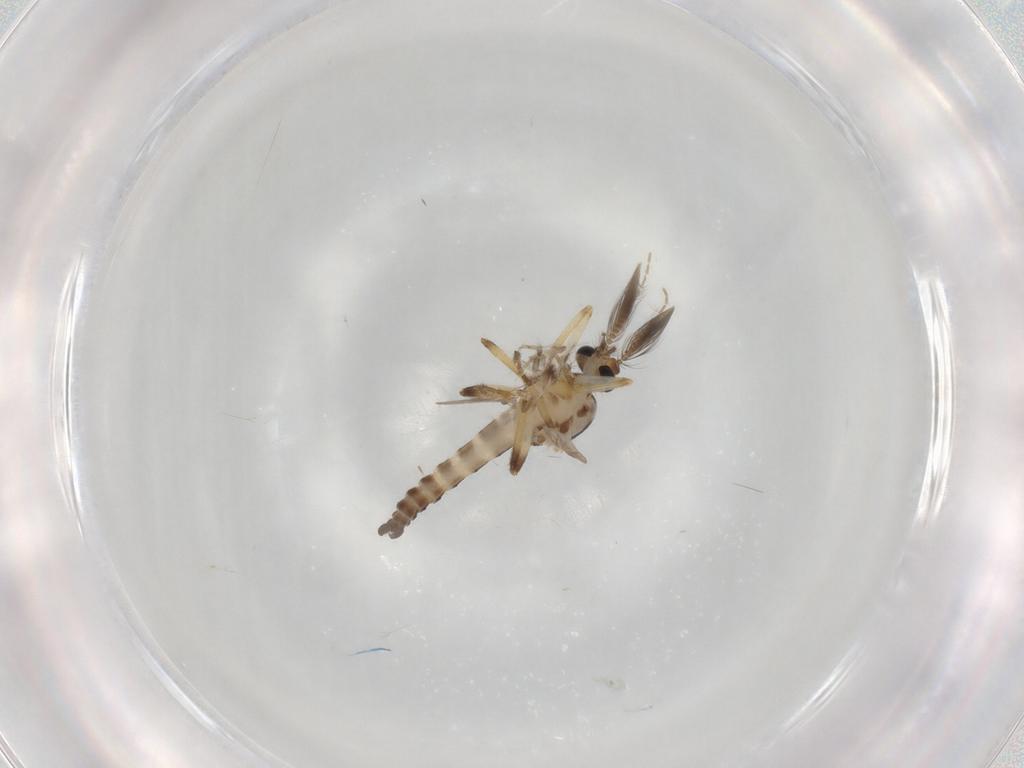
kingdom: Animalia
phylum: Arthropoda
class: Insecta
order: Diptera
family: Ceratopogonidae
